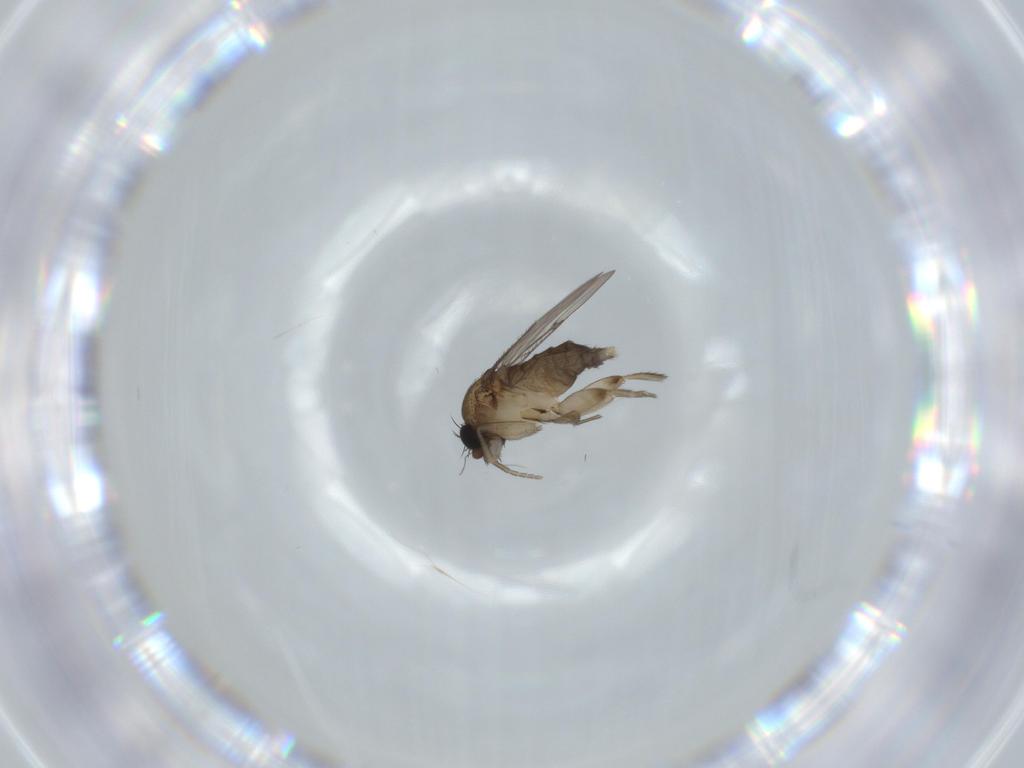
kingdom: Animalia
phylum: Arthropoda
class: Insecta
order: Diptera
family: Phoridae
